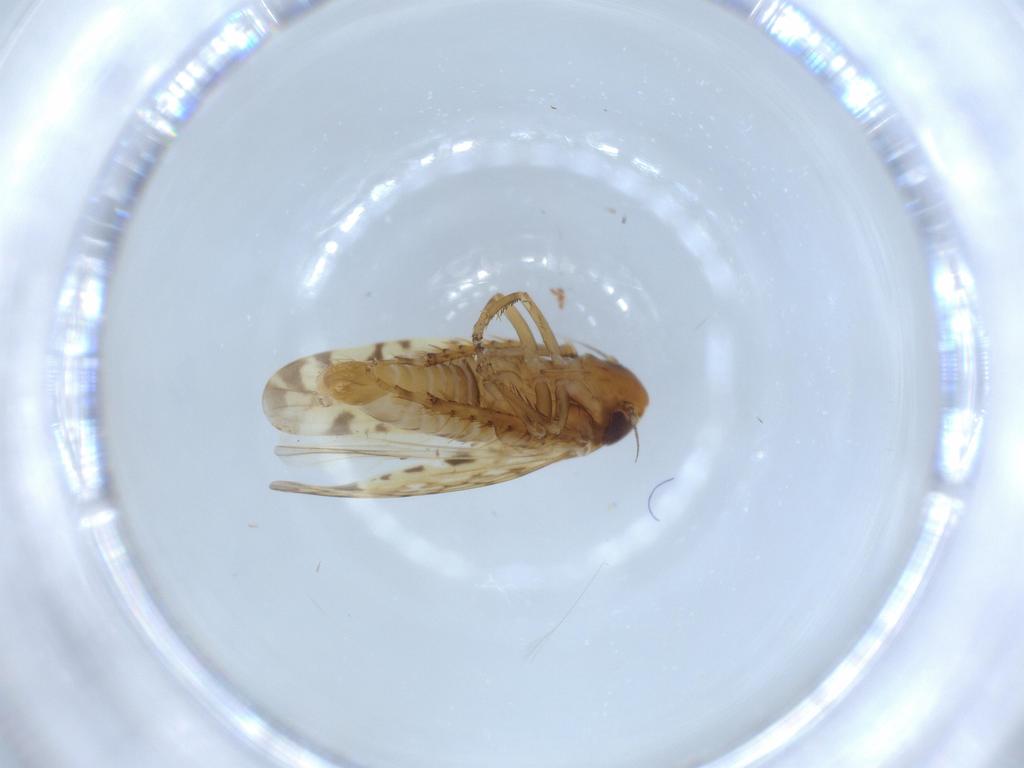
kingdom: Animalia
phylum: Arthropoda
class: Insecta
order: Hemiptera
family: Cicadellidae
